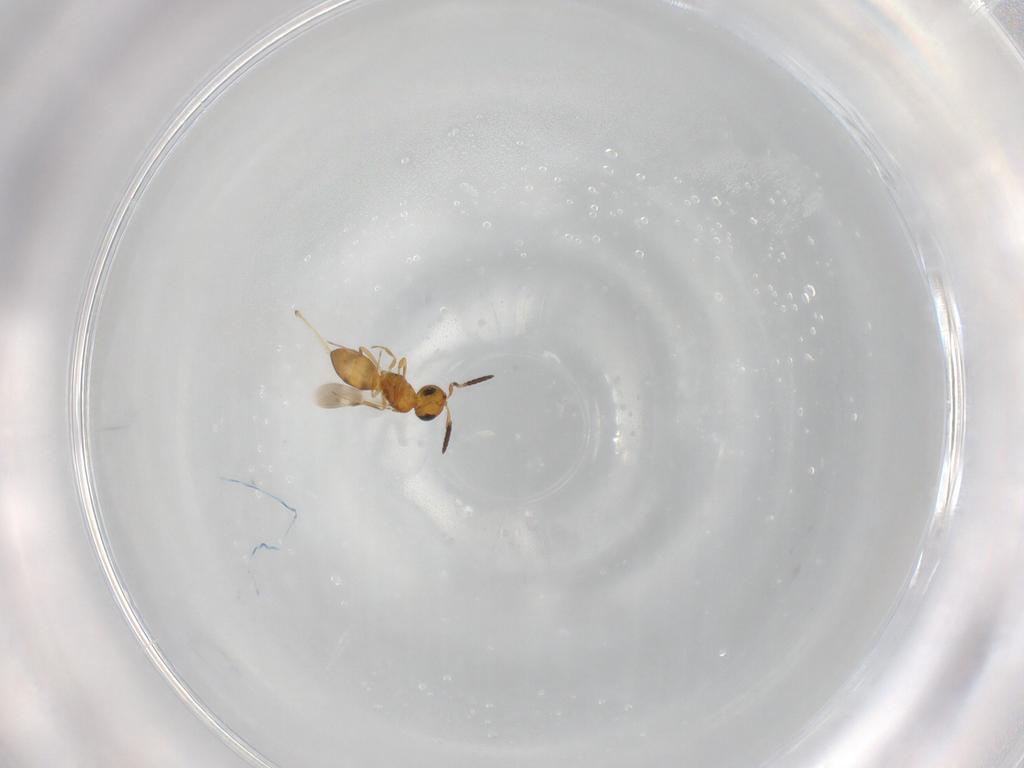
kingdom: Animalia
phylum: Arthropoda
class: Insecta
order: Hymenoptera
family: Scelionidae
